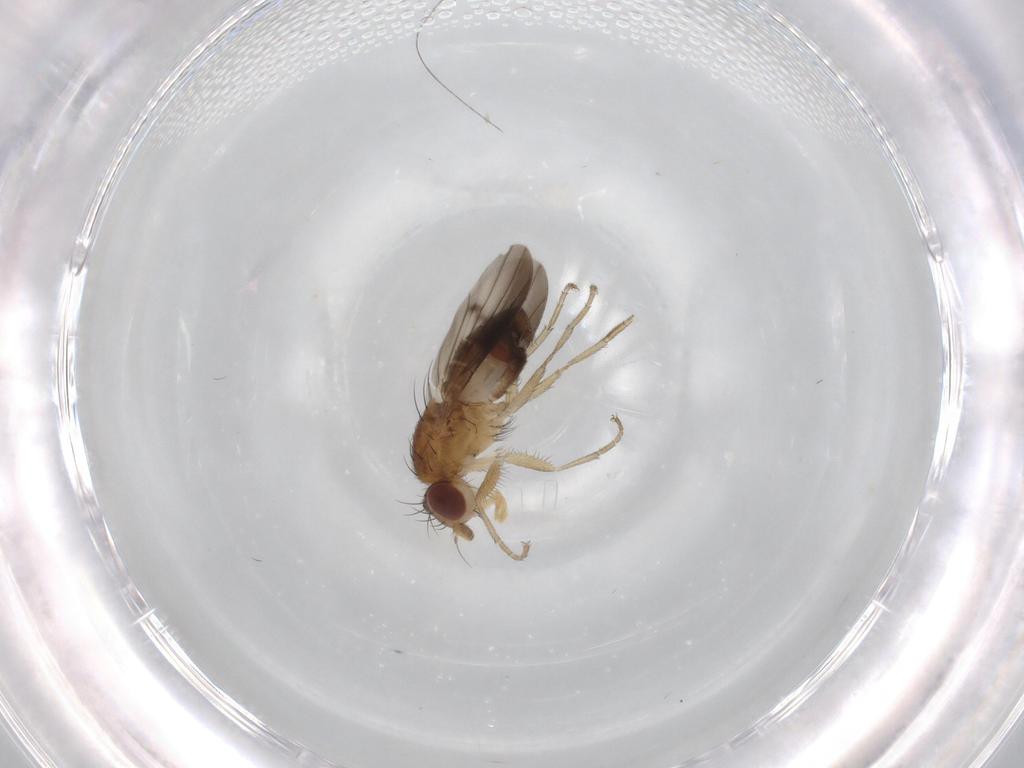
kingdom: Animalia
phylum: Arthropoda
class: Insecta
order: Diptera
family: Heleomyzidae
